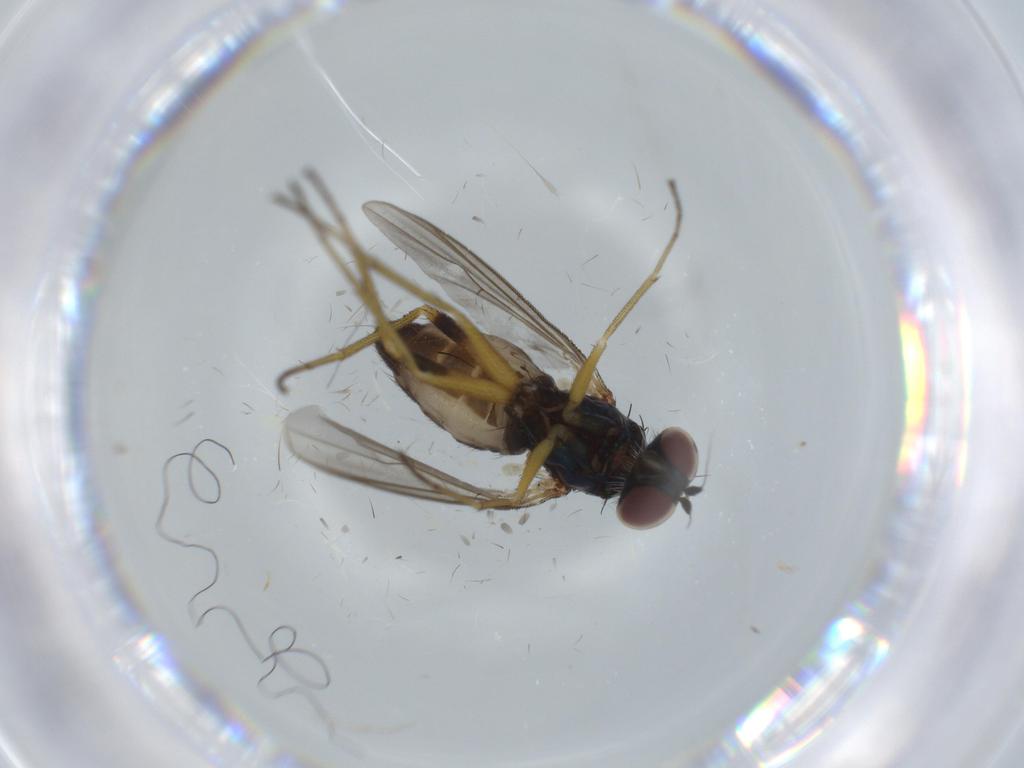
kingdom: Animalia
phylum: Arthropoda
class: Insecta
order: Diptera
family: Dolichopodidae
